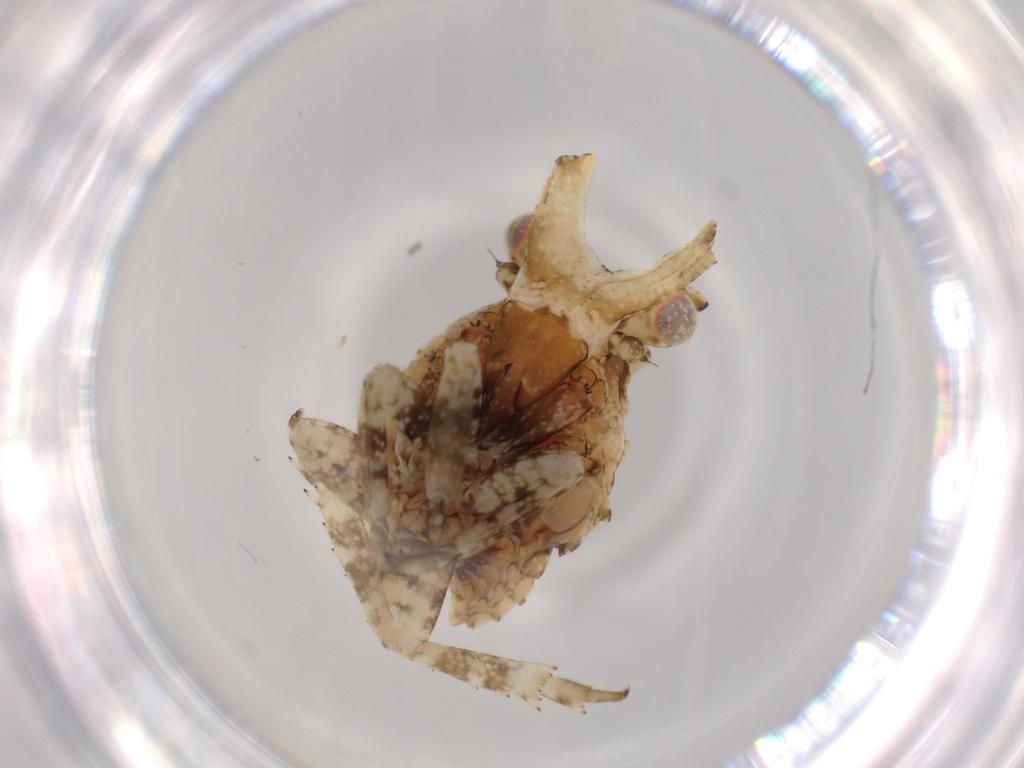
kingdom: Animalia
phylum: Arthropoda
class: Insecta
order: Hemiptera
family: Fulgoridae
